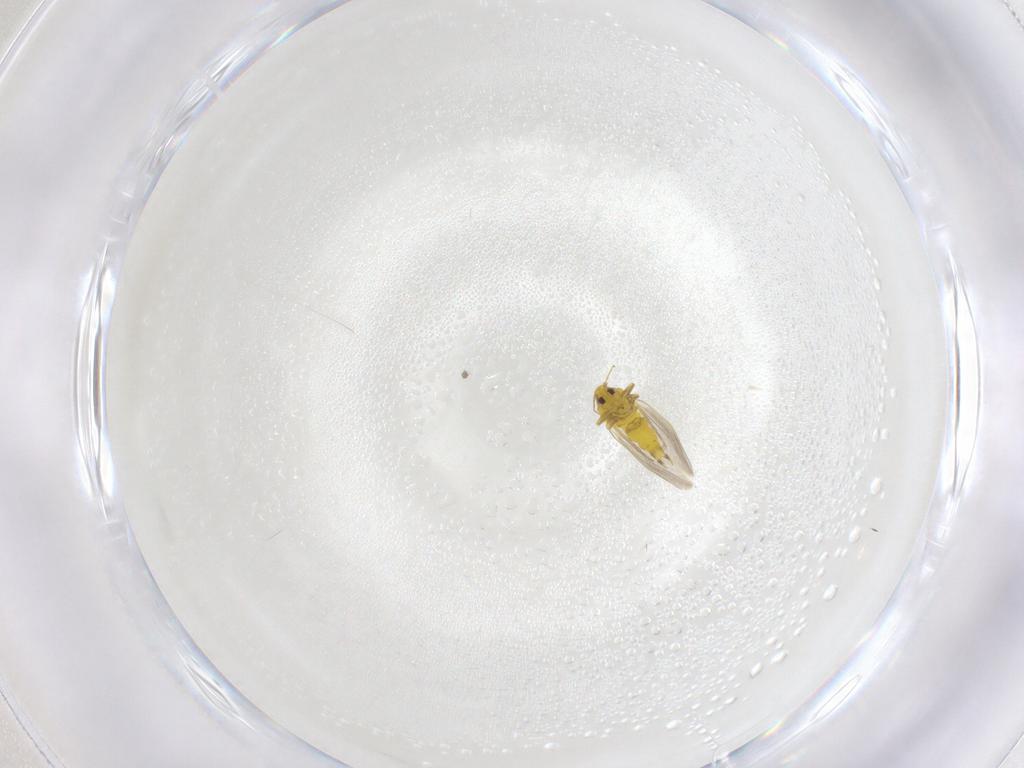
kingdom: Animalia
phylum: Arthropoda
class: Insecta
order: Hemiptera
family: Aleyrodidae
